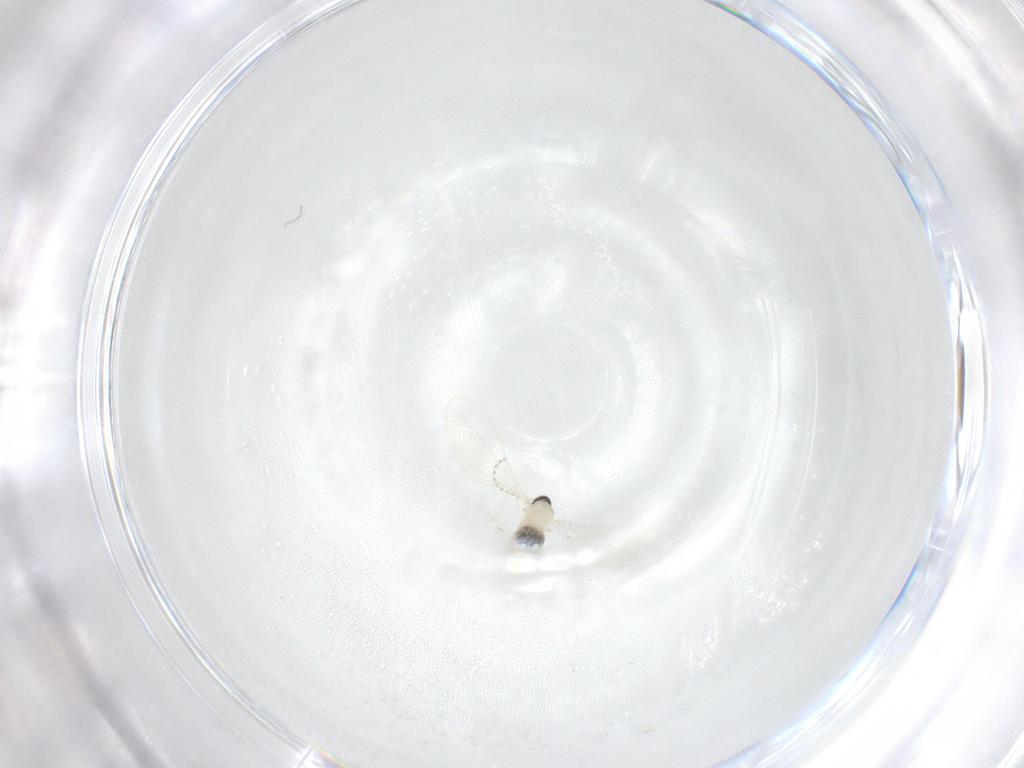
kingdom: Animalia
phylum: Arthropoda
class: Insecta
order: Diptera
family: Cecidomyiidae
